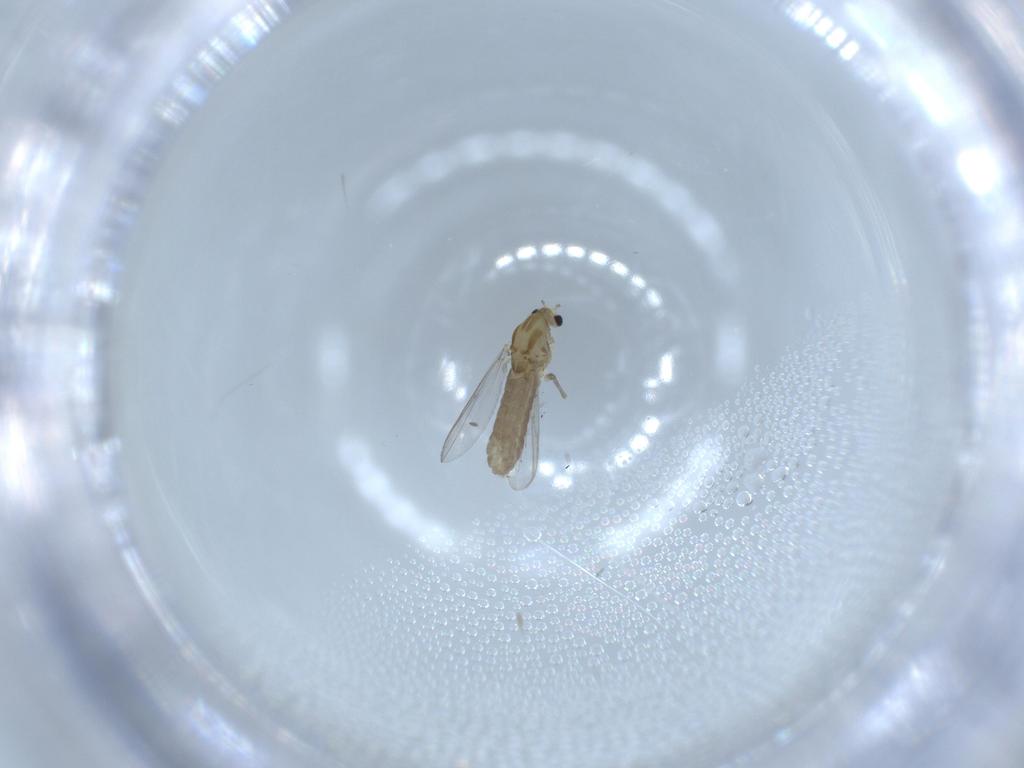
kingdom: Animalia
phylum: Arthropoda
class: Insecta
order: Diptera
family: Chironomidae
